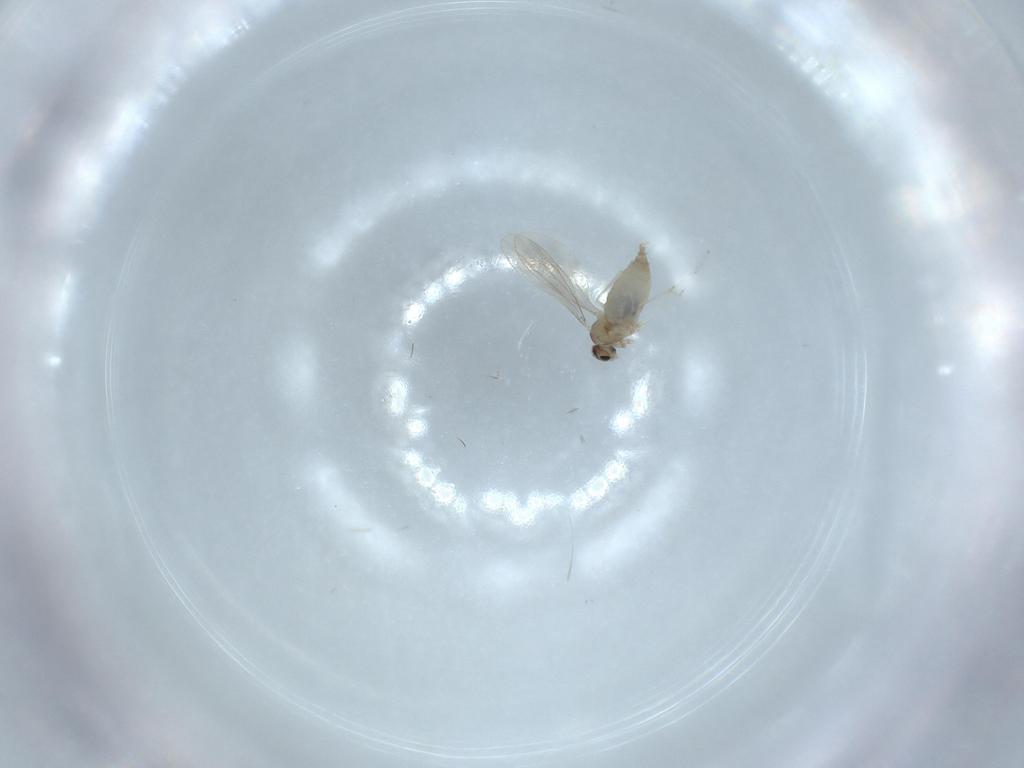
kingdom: Animalia
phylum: Arthropoda
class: Insecta
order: Diptera
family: Cecidomyiidae
